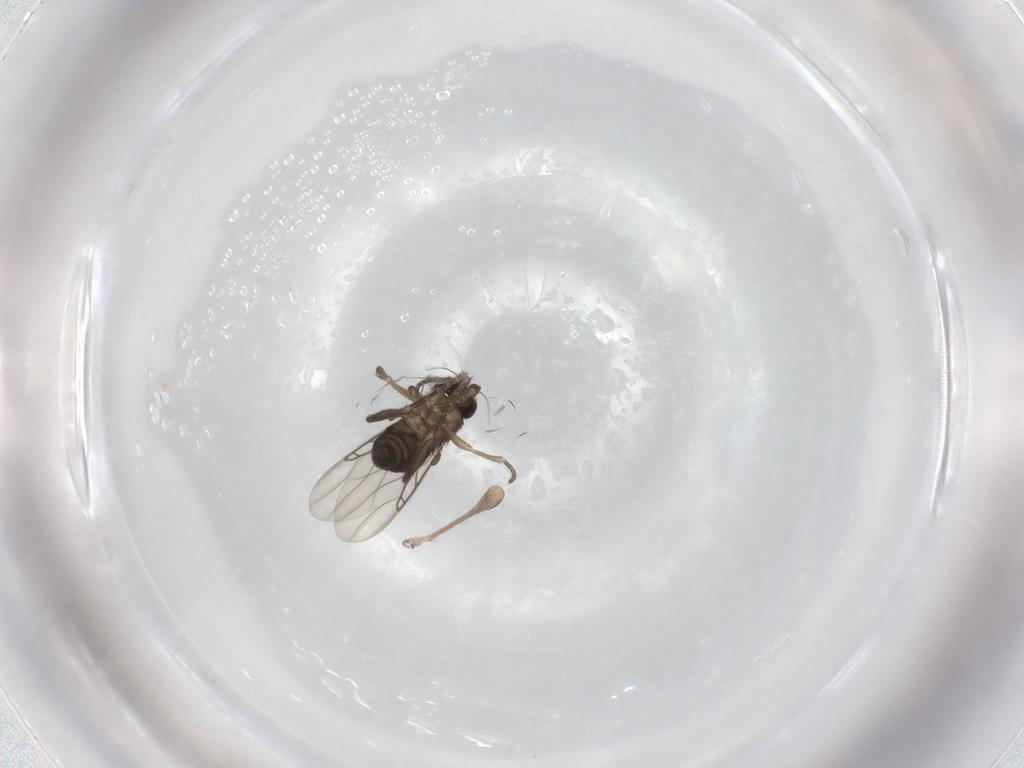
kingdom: Animalia
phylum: Arthropoda
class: Insecta
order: Diptera
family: Phoridae
